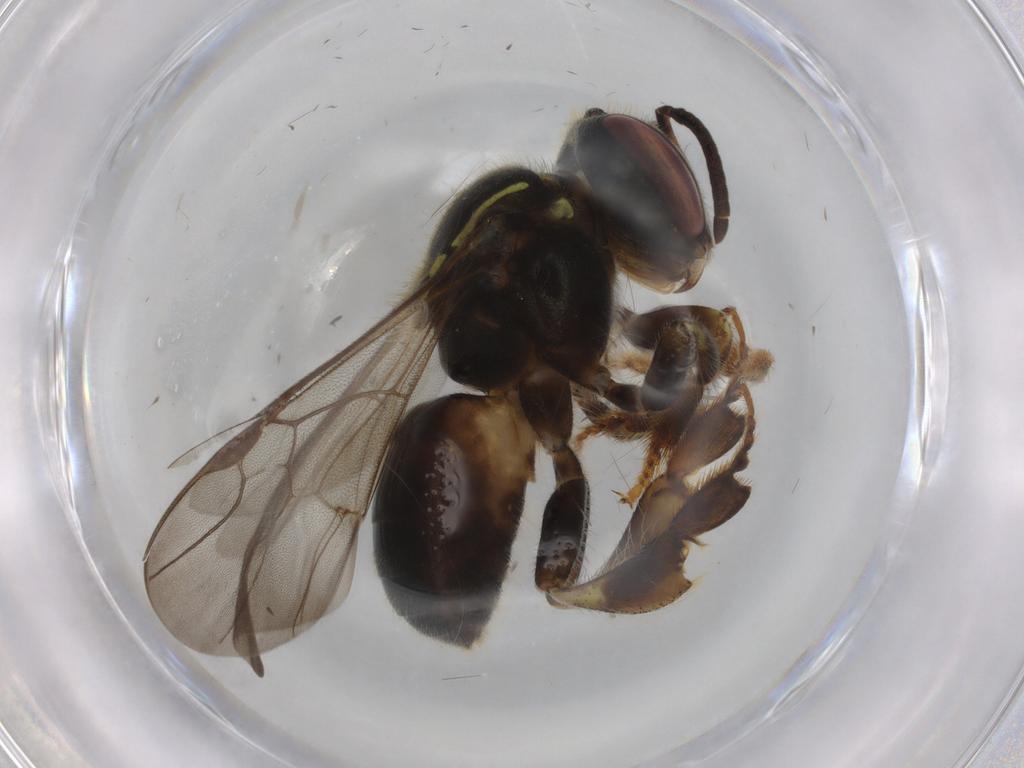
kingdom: Animalia
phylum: Arthropoda
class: Insecta
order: Hymenoptera
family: Apidae
